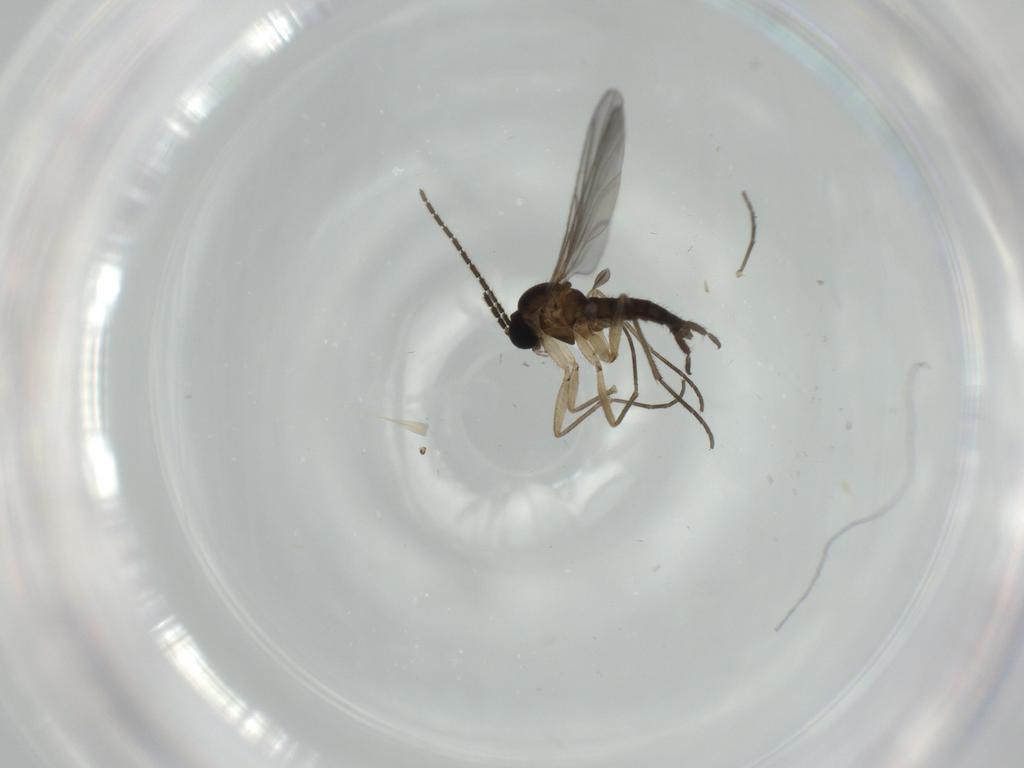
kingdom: Animalia
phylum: Arthropoda
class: Insecta
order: Diptera
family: Sciaridae
